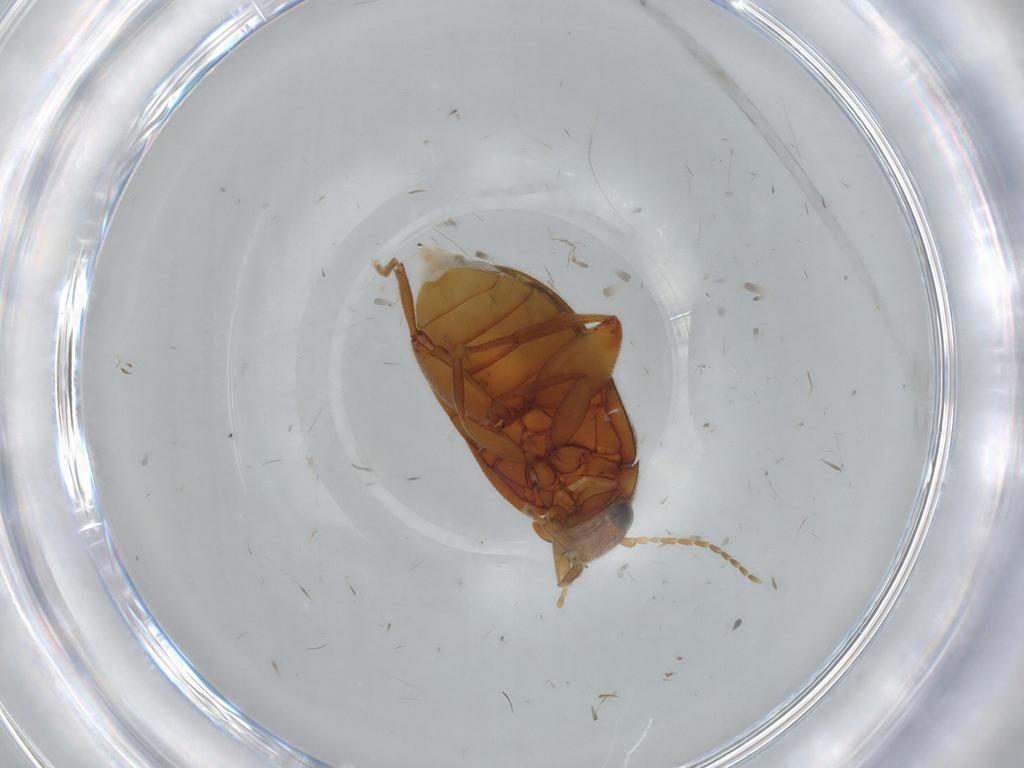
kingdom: Animalia
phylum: Arthropoda
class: Insecta
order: Coleoptera
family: Scirtidae
